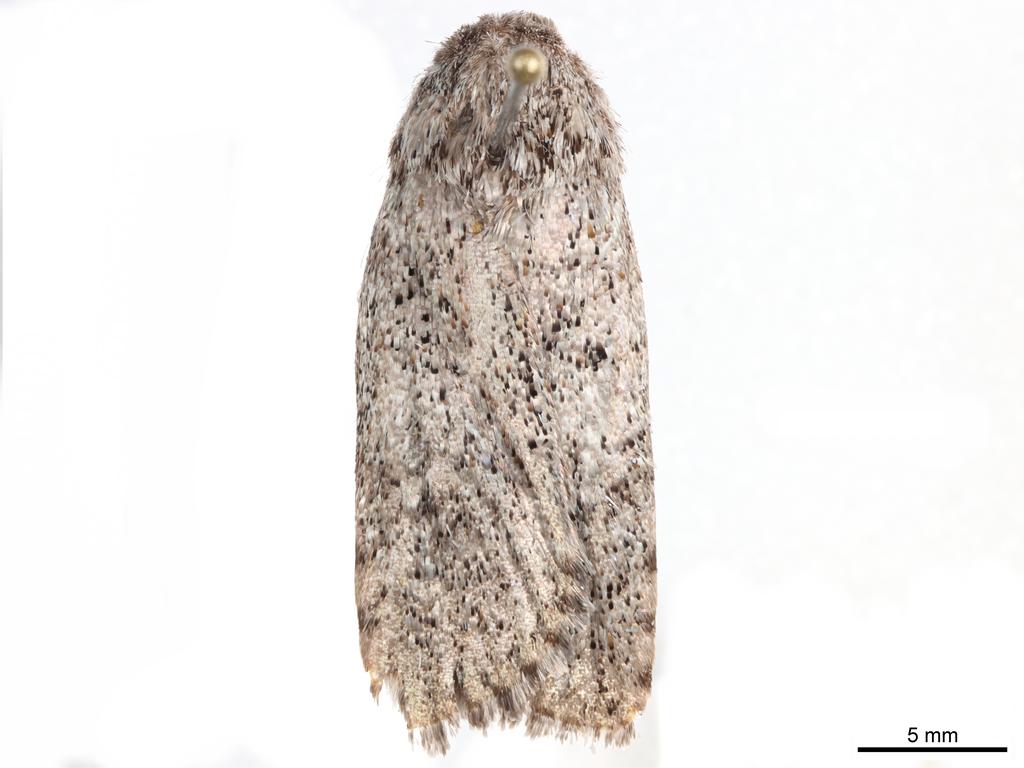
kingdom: Animalia
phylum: Arthropoda
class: Insecta
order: Lepidoptera
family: Xyloryctidae
